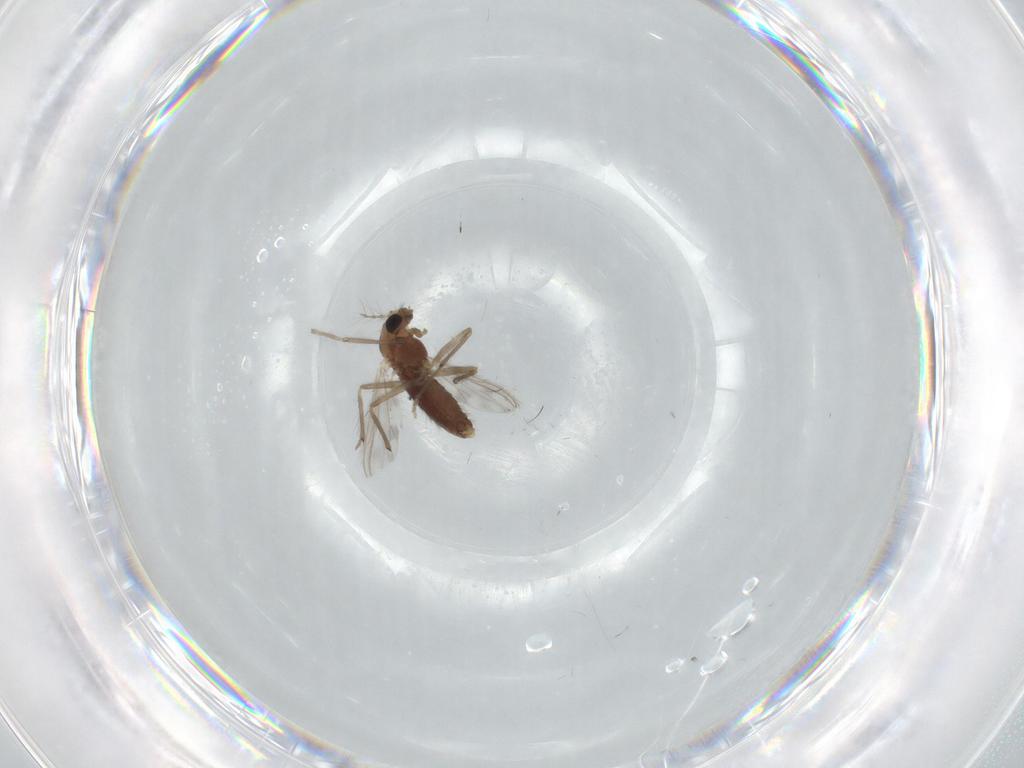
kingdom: Animalia
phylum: Arthropoda
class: Insecta
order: Diptera
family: Chironomidae
